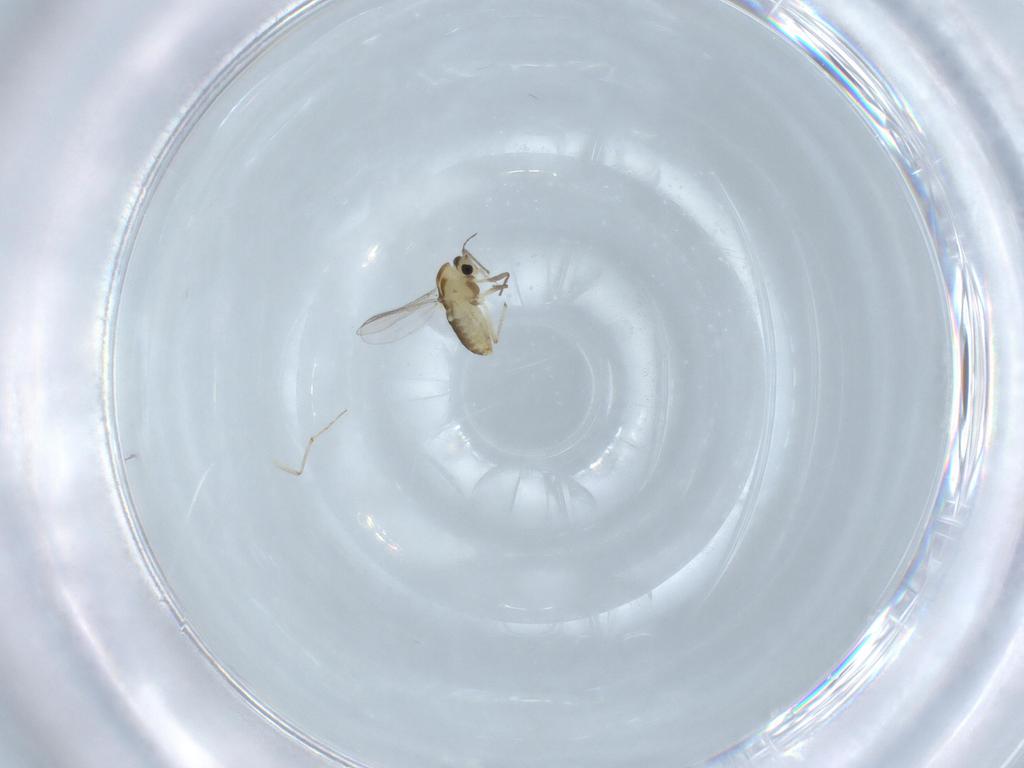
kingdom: Animalia
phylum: Arthropoda
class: Insecta
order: Diptera
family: Chironomidae
